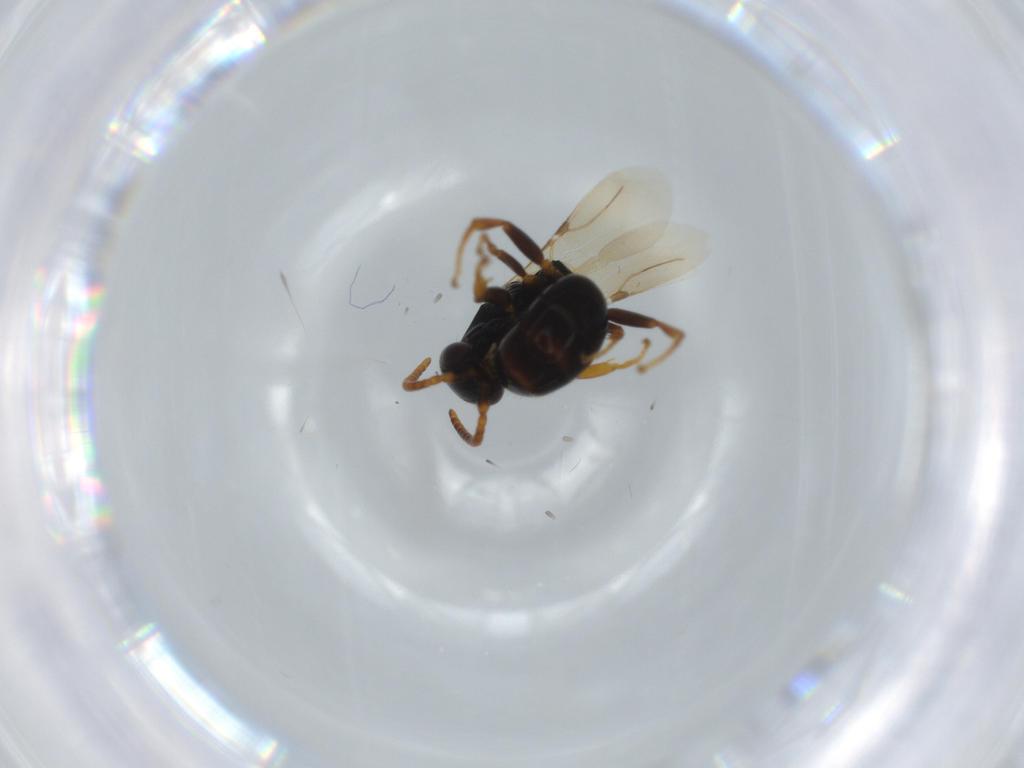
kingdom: Animalia
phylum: Arthropoda
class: Insecta
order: Hymenoptera
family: Bethylidae
